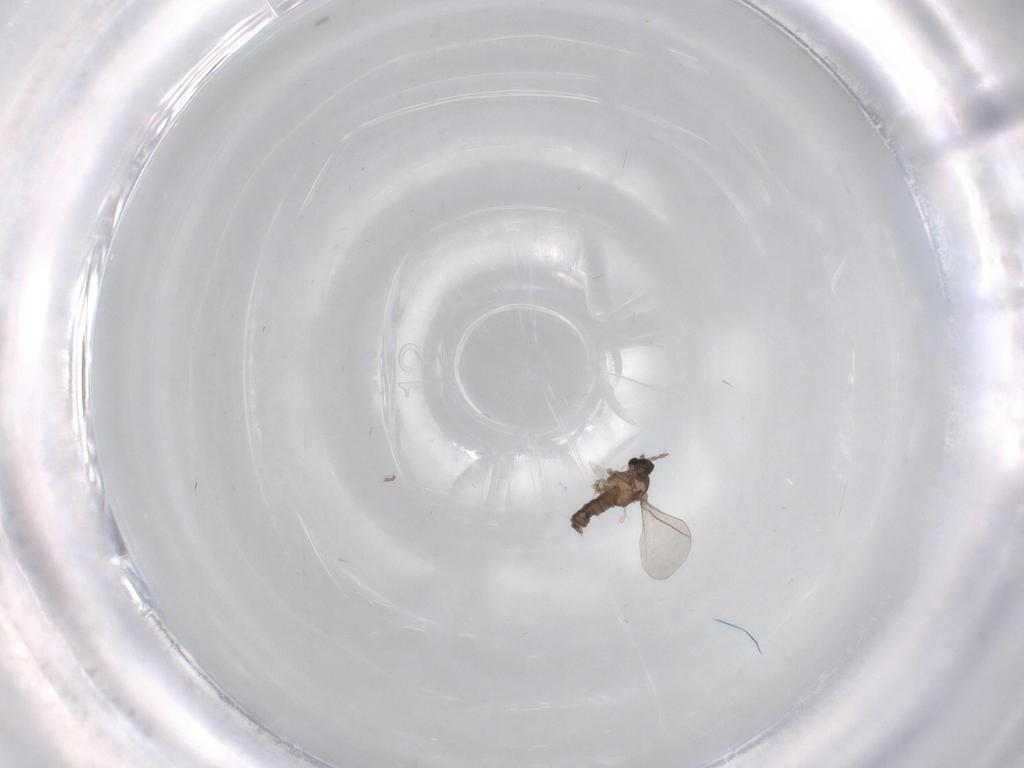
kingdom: Animalia
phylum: Arthropoda
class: Insecta
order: Diptera
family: Cecidomyiidae
